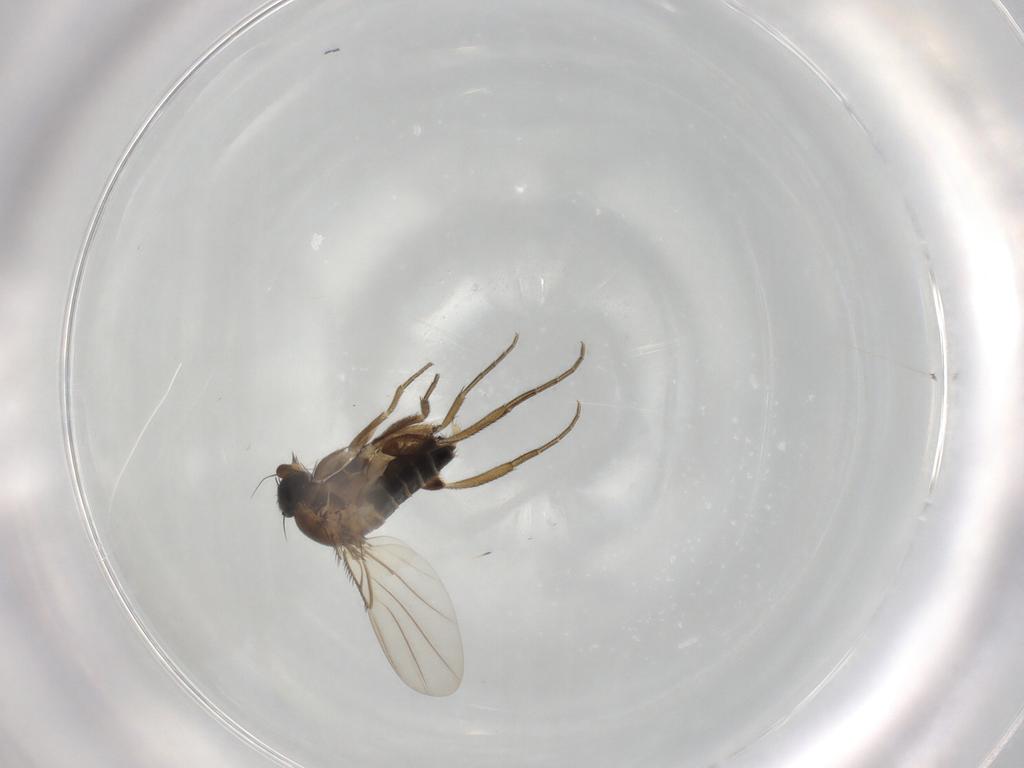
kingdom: Animalia
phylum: Arthropoda
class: Insecta
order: Diptera
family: Phoridae
